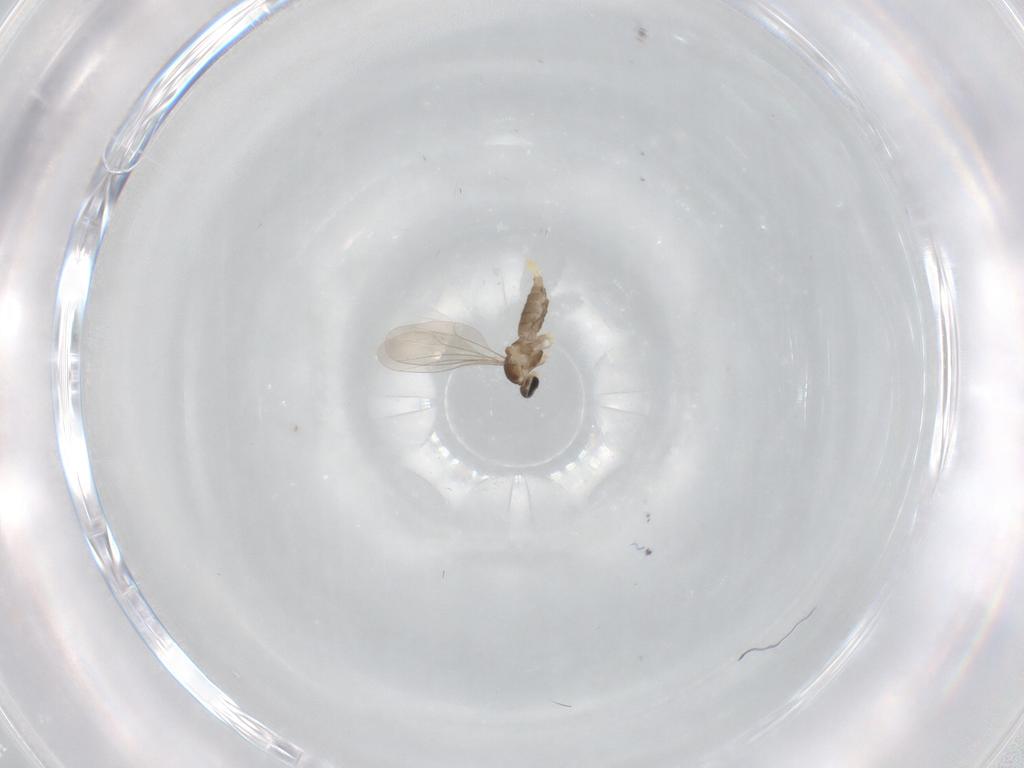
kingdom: Animalia
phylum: Arthropoda
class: Insecta
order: Diptera
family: Cecidomyiidae
